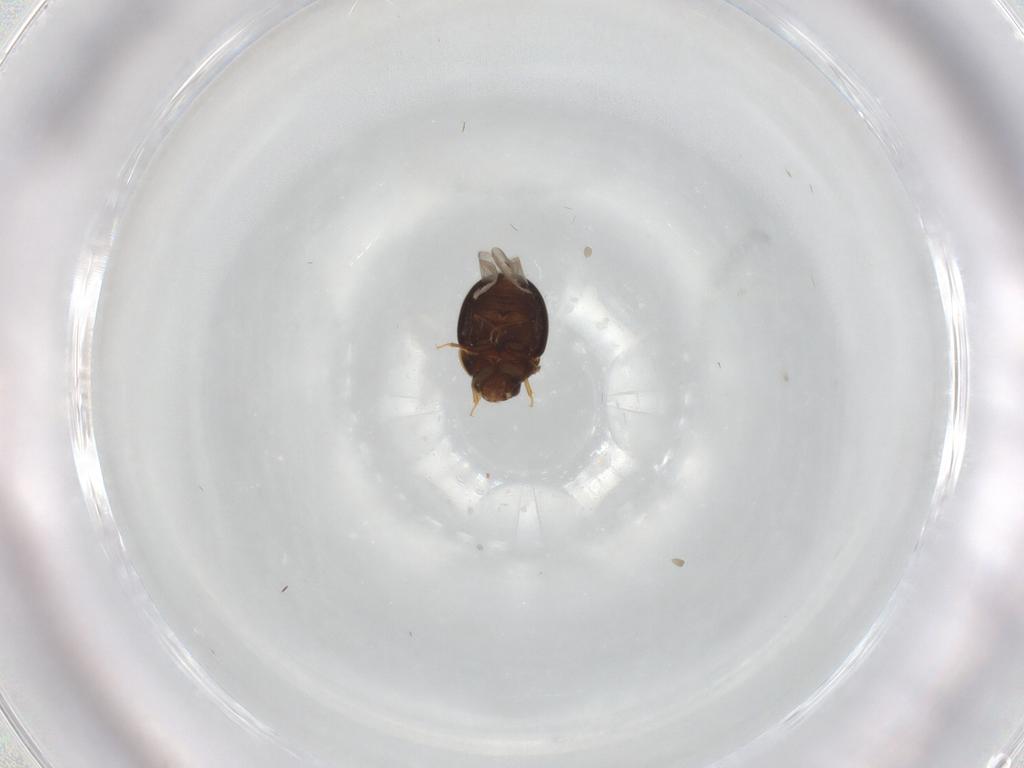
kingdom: Animalia
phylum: Arthropoda
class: Insecta
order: Coleoptera
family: Leiodidae
